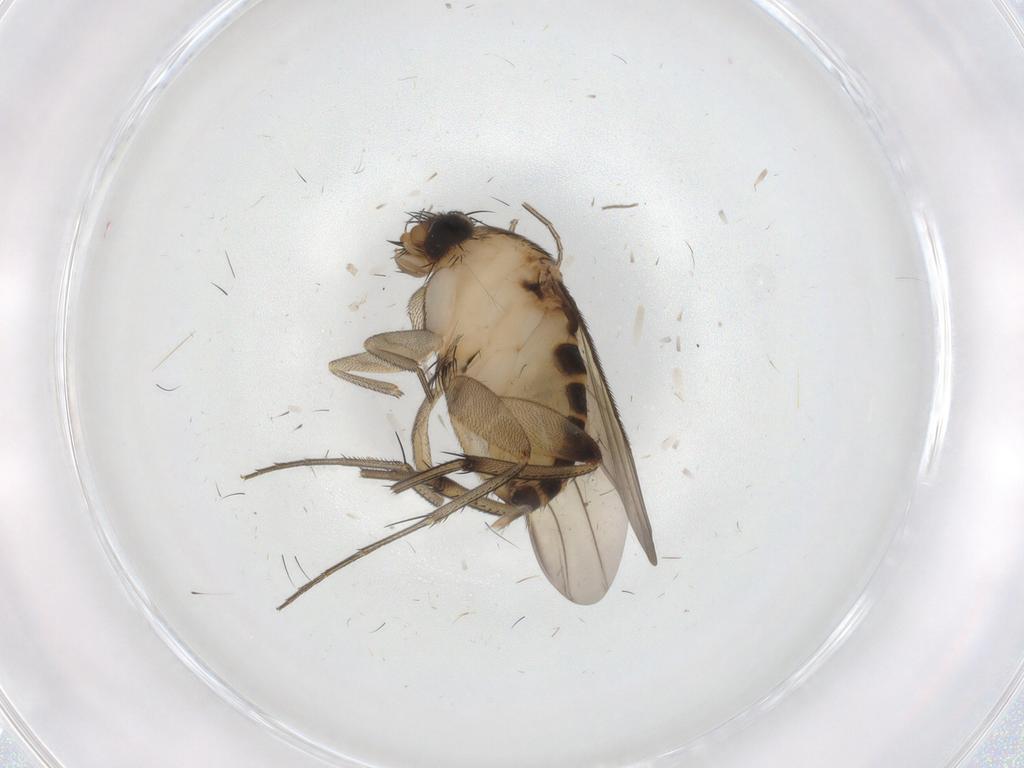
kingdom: Animalia
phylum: Arthropoda
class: Insecta
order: Diptera
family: Phoridae
